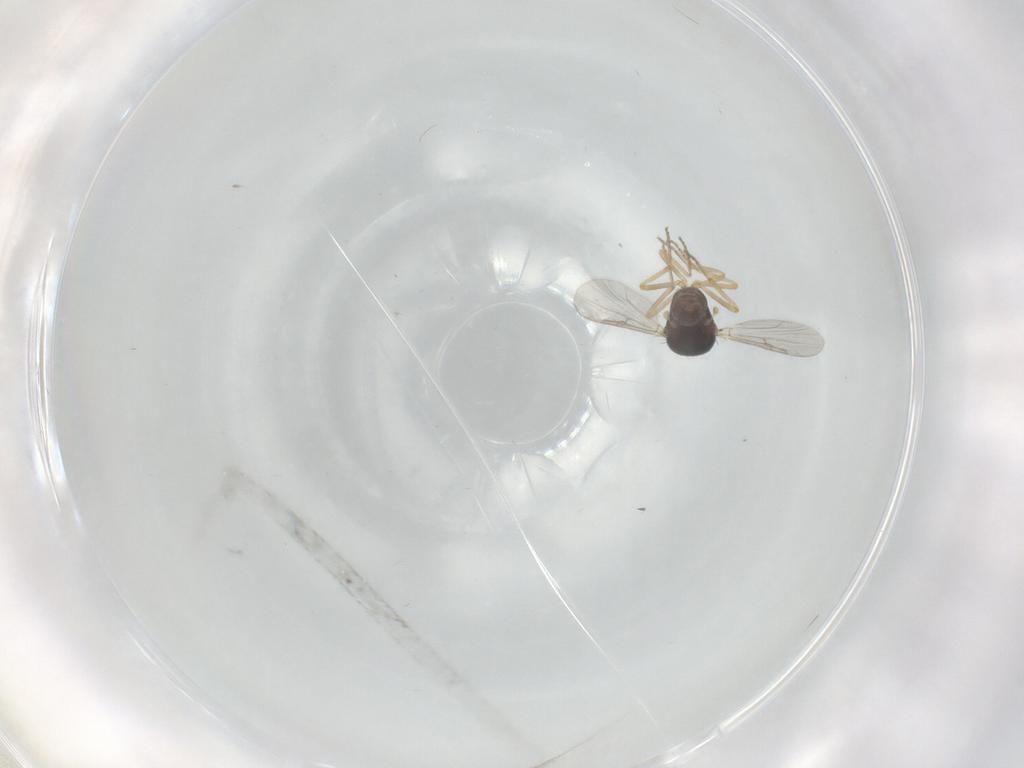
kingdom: Animalia
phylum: Arthropoda
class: Insecta
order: Diptera
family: Ceratopogonidae
